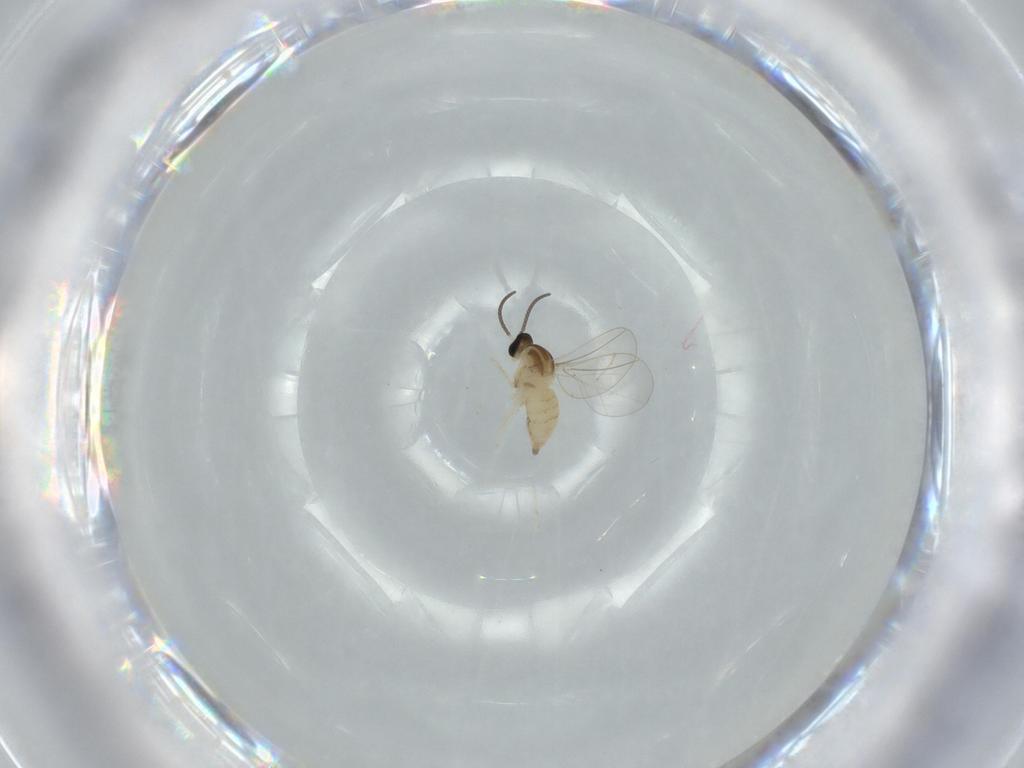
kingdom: Animalia
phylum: Arthropoda
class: Insecta
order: Diptera
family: Cecidomyiidae
